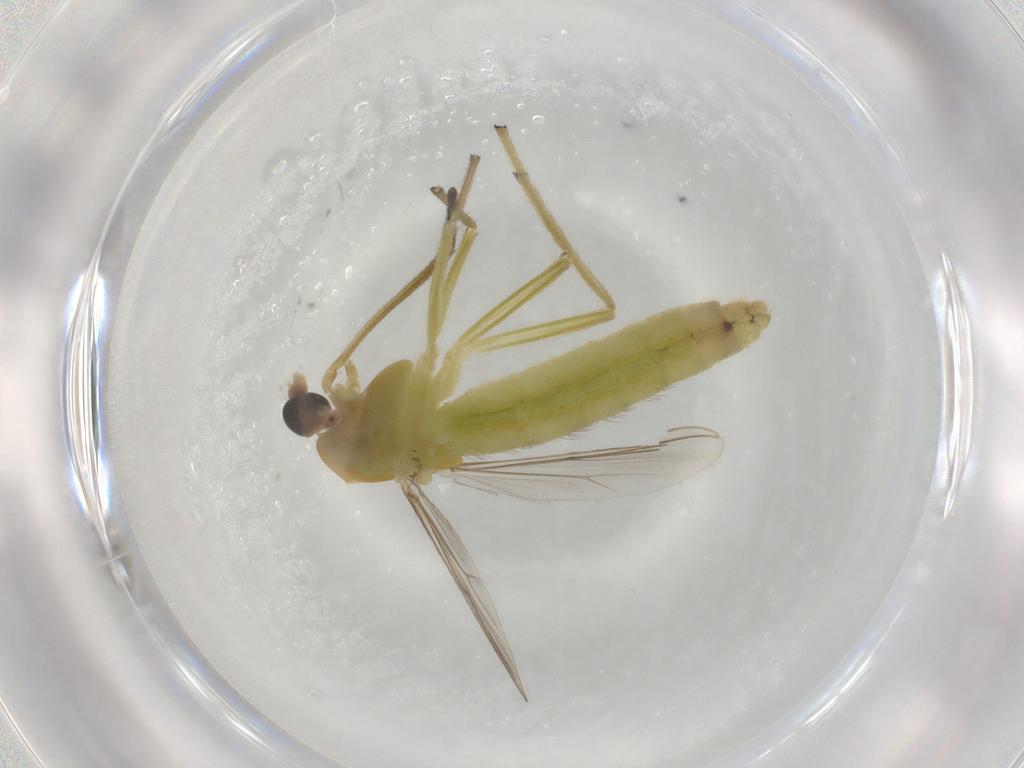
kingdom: Animalia
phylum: Arthropoda
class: Insecta
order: Diptera
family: Chironomidae
